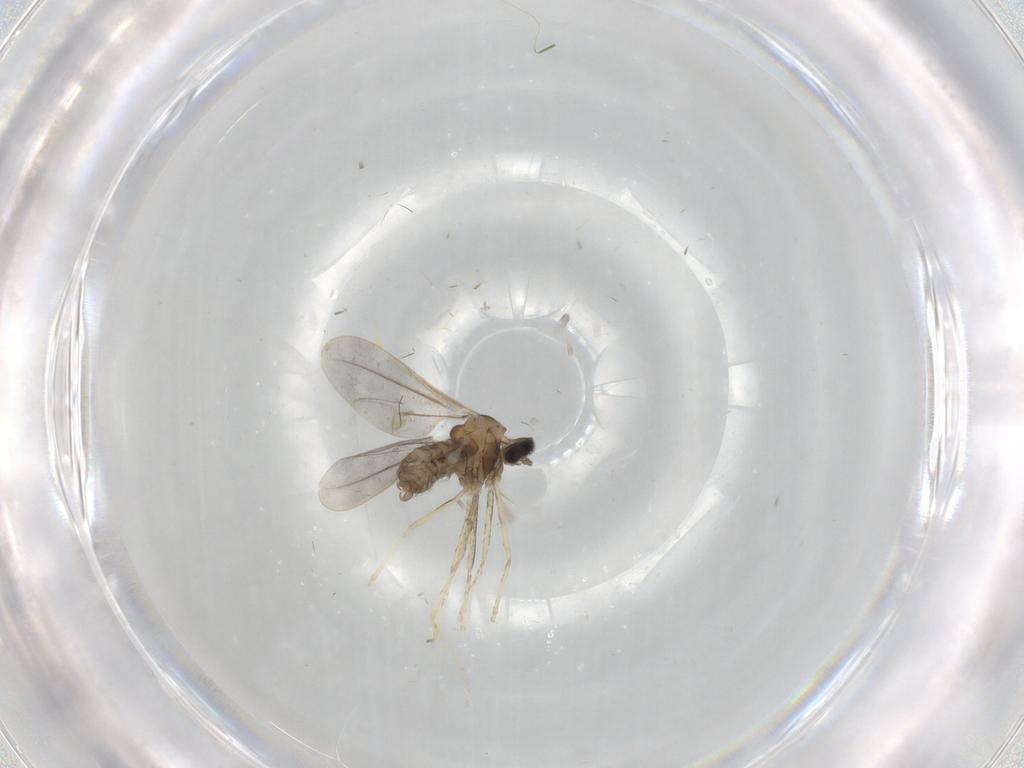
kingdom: Animalia
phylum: Arthropoda
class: Insecta
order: Diptera
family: Cecidomyiidae
